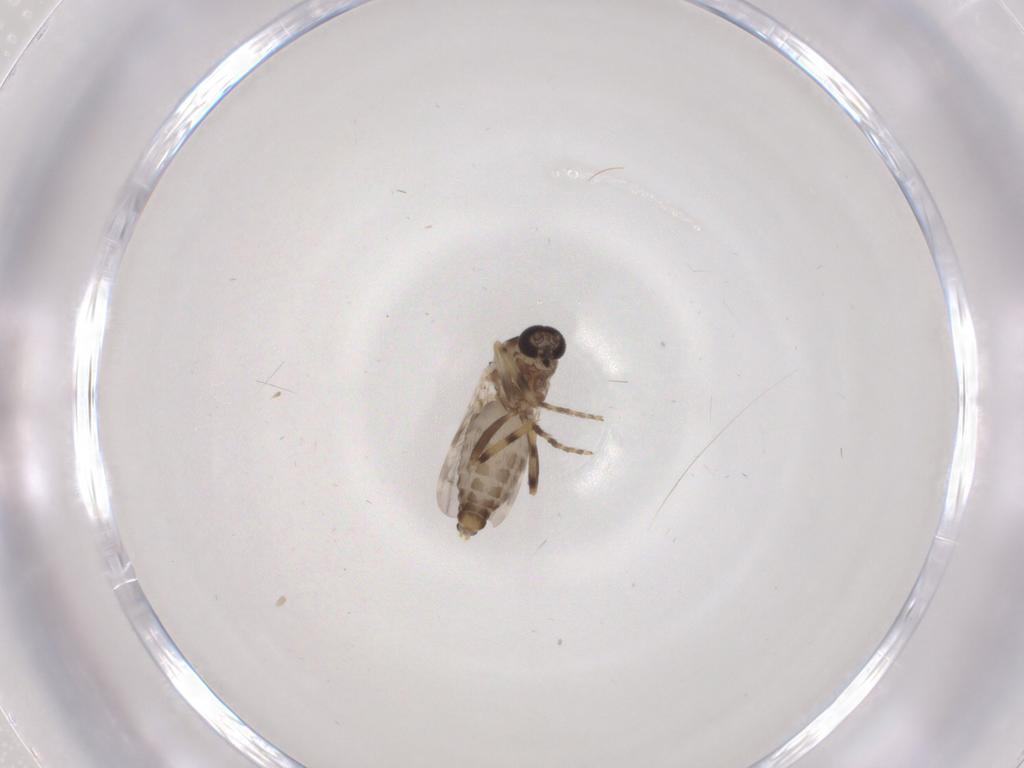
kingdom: Animalia
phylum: Arthropoda
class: Insecta
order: Diptera
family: Ceratopogonidae
